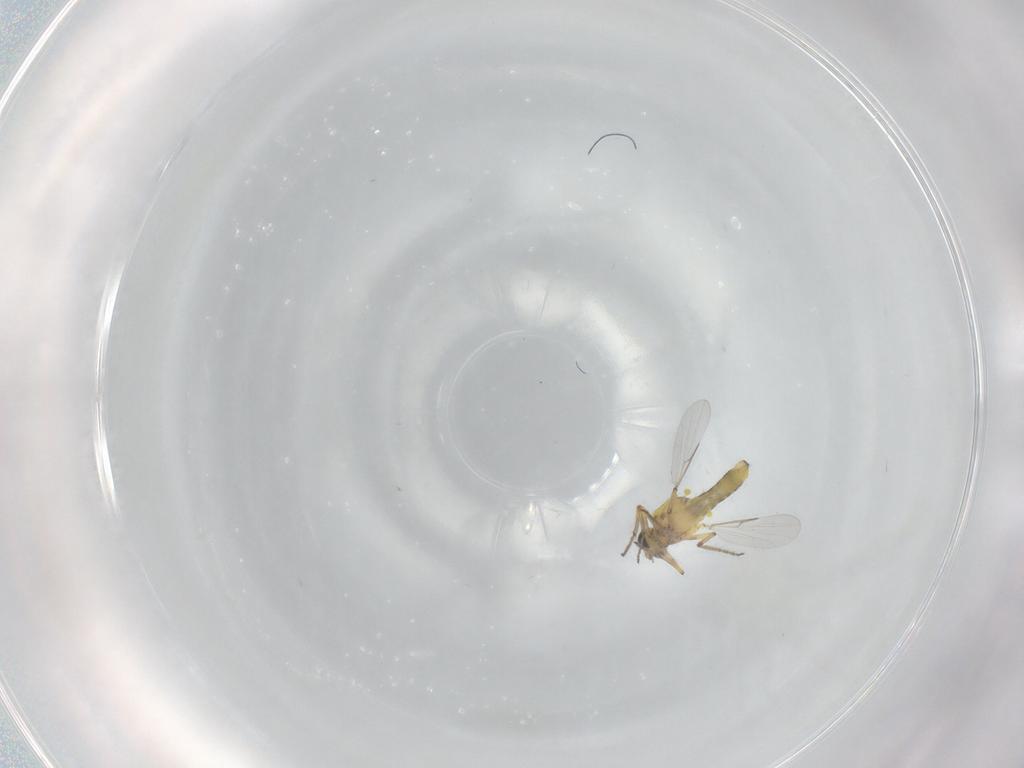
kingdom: Animalia
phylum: Arthropoda
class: Insecta
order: Diptera
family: Ceratopogonidae
